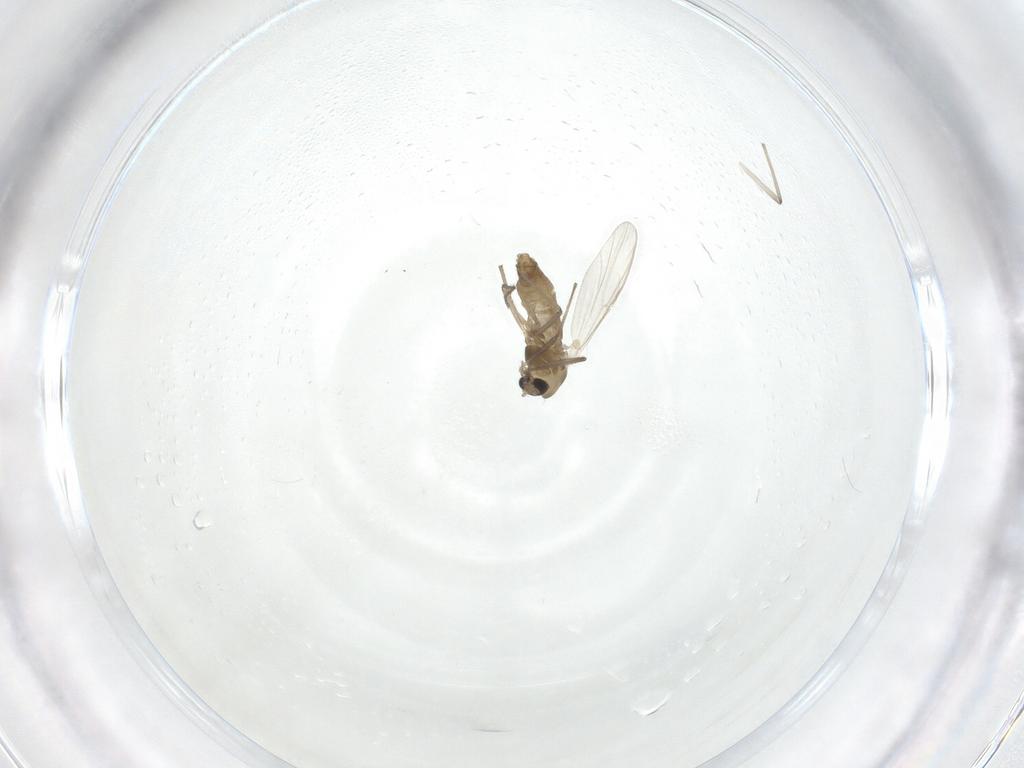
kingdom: Animalia
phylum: Arthropoda
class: Insecta
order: Diptera
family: Chironomidae
